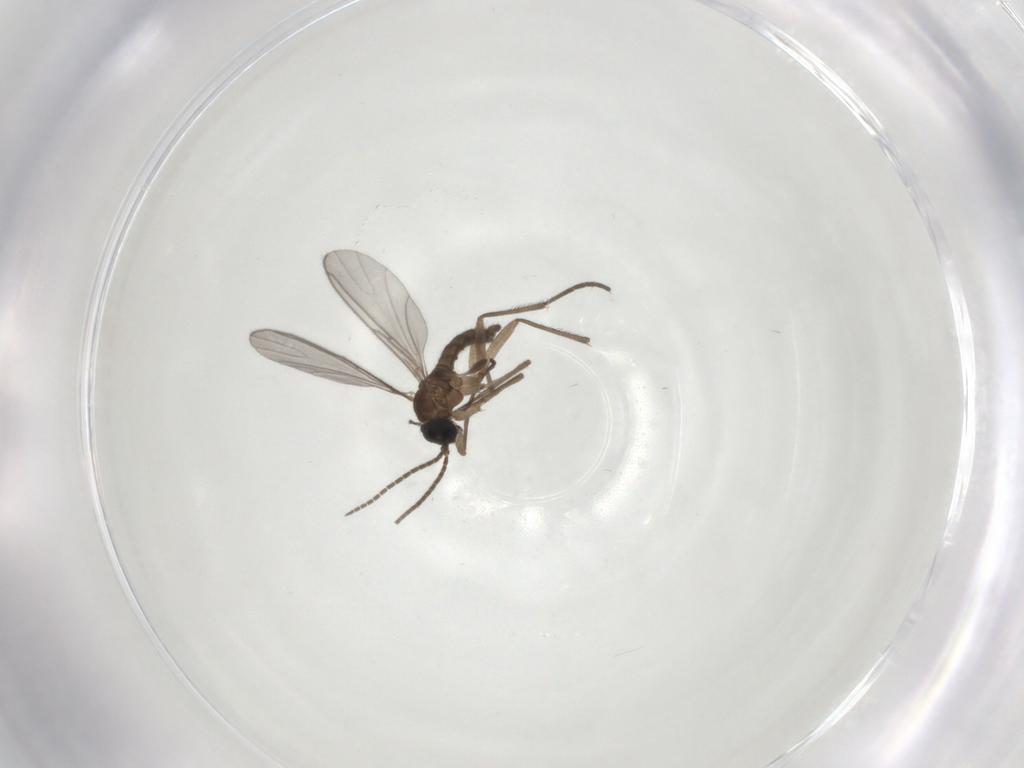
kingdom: Animalia
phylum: Arthropoda
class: Insecta
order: Diptera
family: Sciaridae
